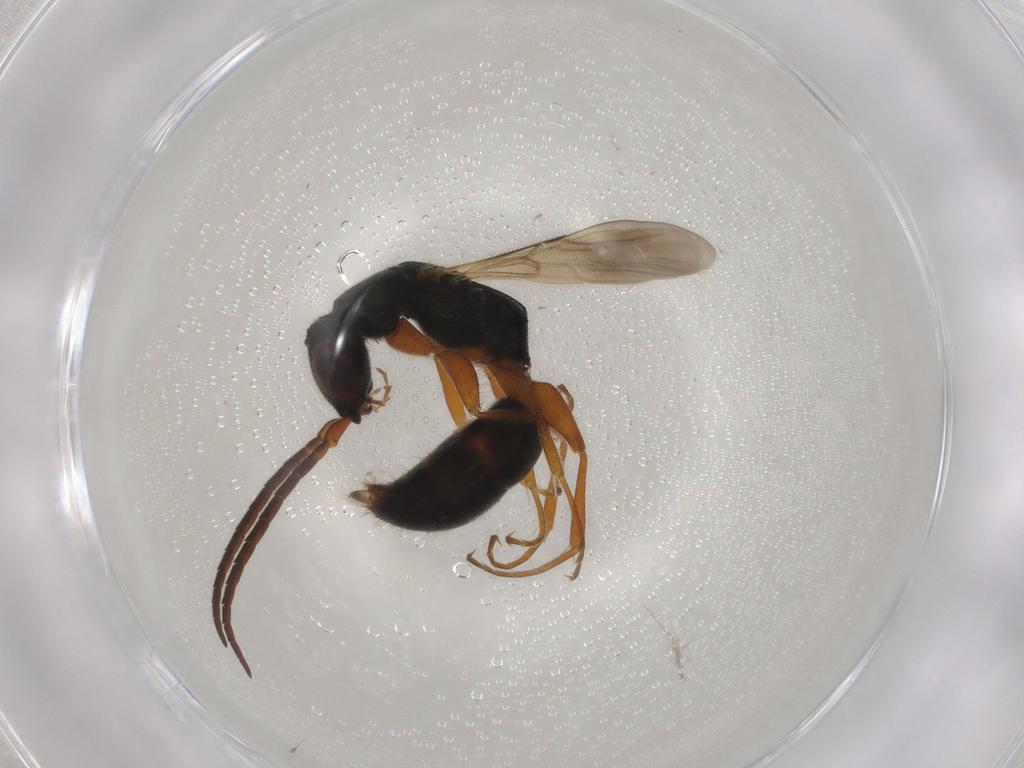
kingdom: Animalia
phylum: Arthropoda
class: Insecta
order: Hymenoptera
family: Bethylidae
